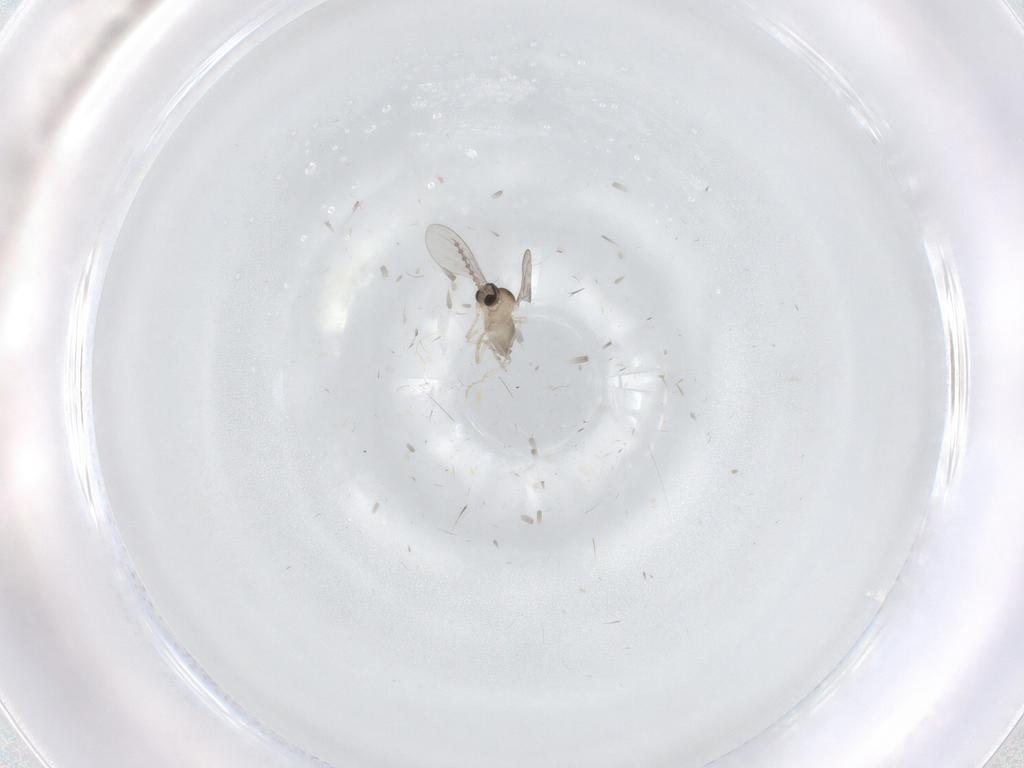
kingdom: Animalia
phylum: Arthropoda
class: Insecta
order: Diptera
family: Cecidomyiidae
